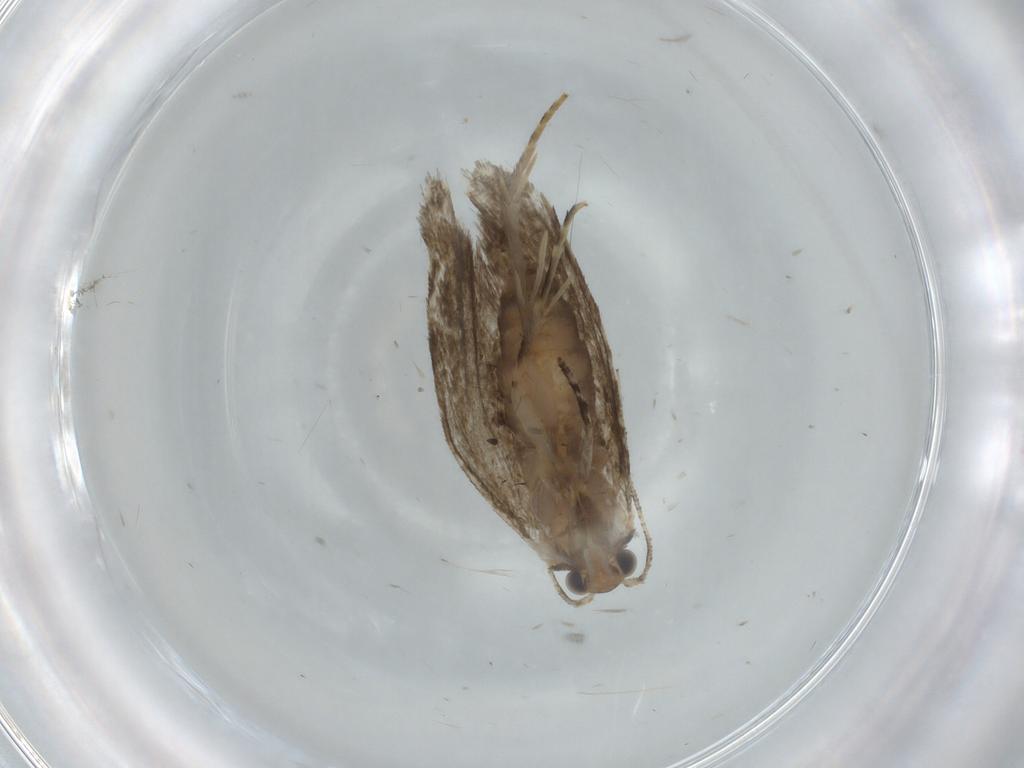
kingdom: Animalia
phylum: Arthropoda
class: Insecta
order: Lepidoptera
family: Tineidae
